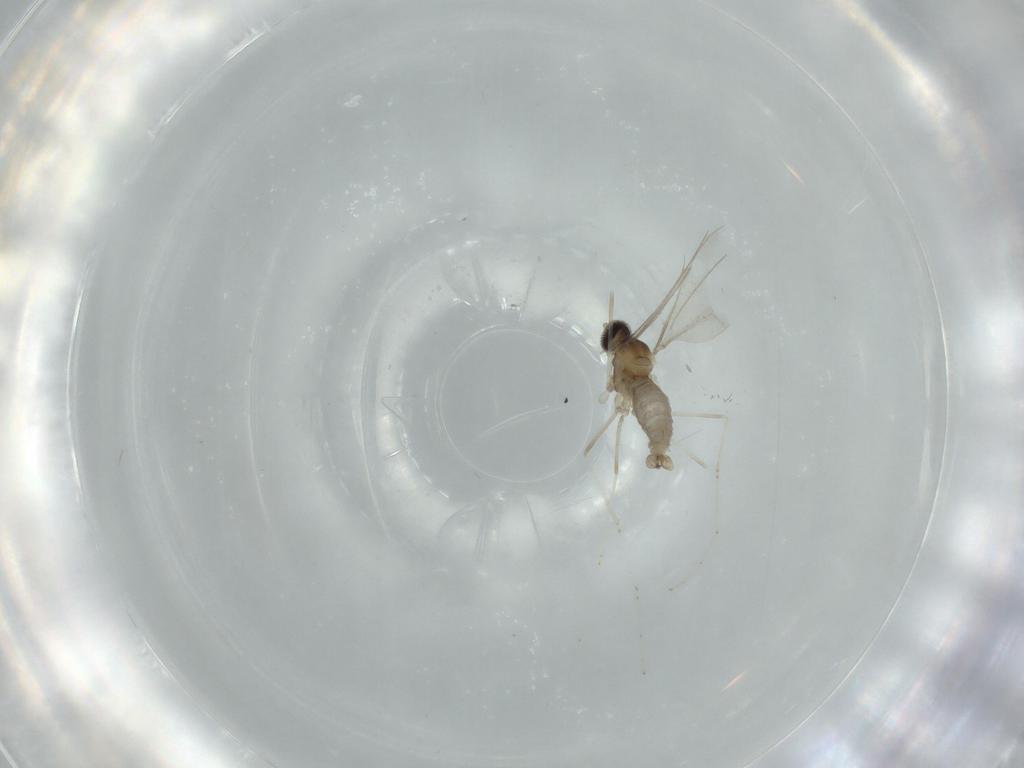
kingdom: Animalia
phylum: Arthropoda
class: Insecta
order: Diptera
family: Cecidomyiidae
